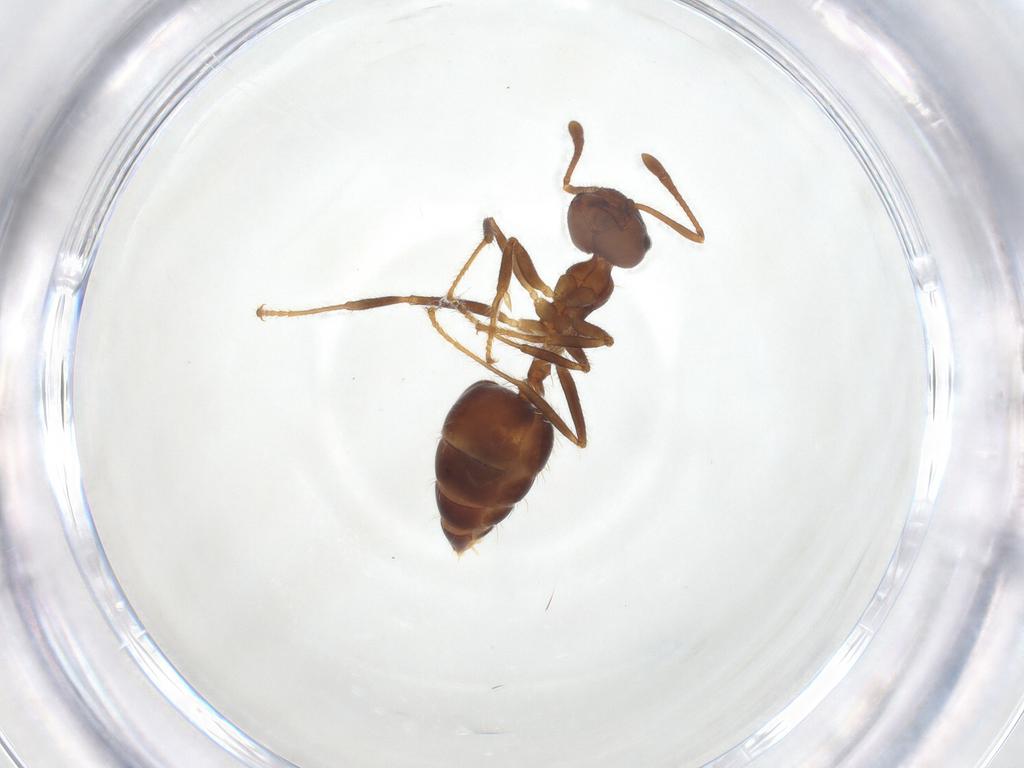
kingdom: Animalia
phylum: Arthropoda
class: Insecta
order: Hymenoptera
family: Formicidae
